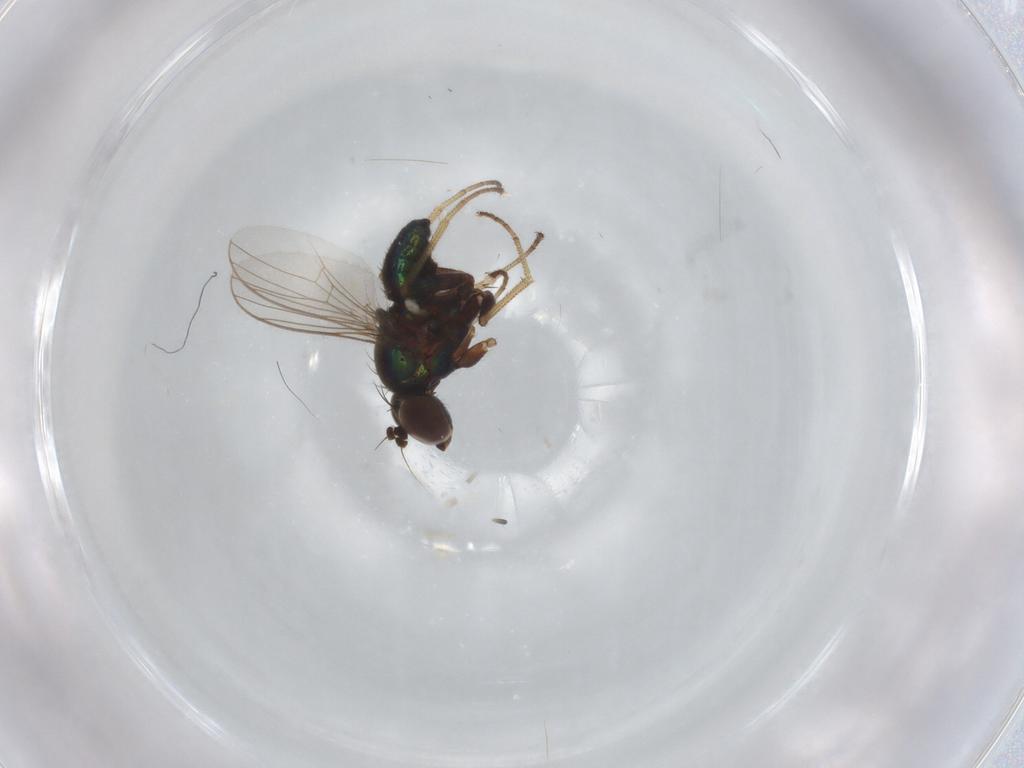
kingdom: Animalia
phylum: Arthropoda
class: Insecta
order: Diptera
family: Dolichopodidae
